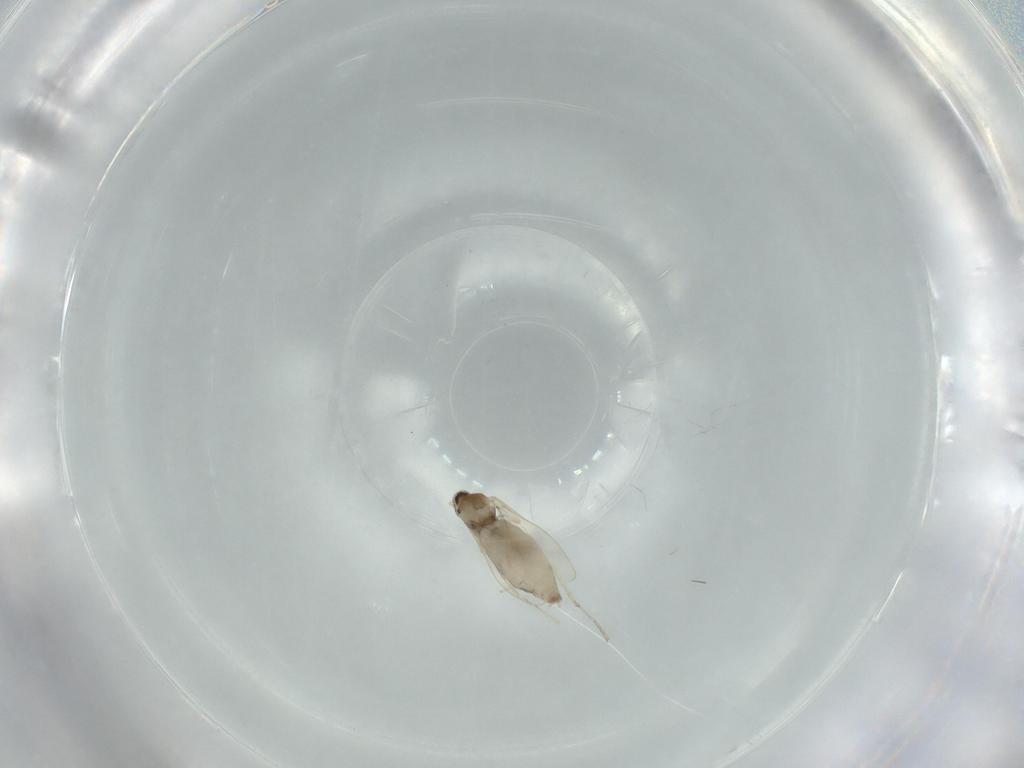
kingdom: Animalia
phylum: Arthropoda
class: Insecta
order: Diptera
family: Cecidomyiidae
